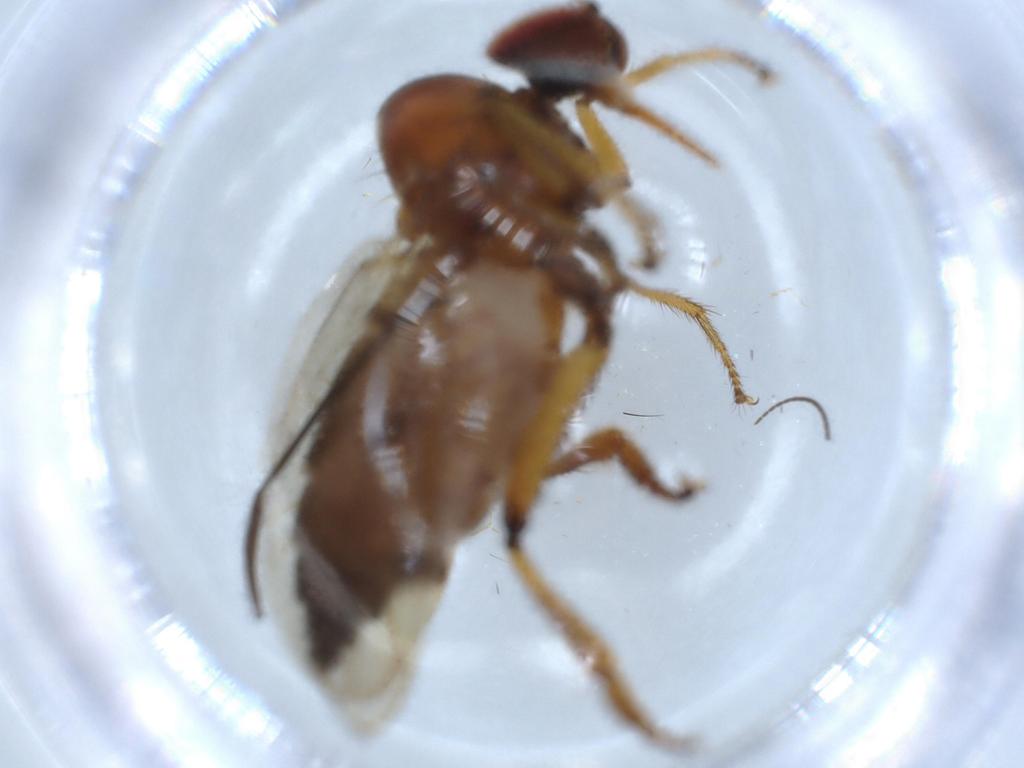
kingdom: Animalia
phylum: Arthropoda
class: Insecta
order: Diptera
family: Hybotidae
